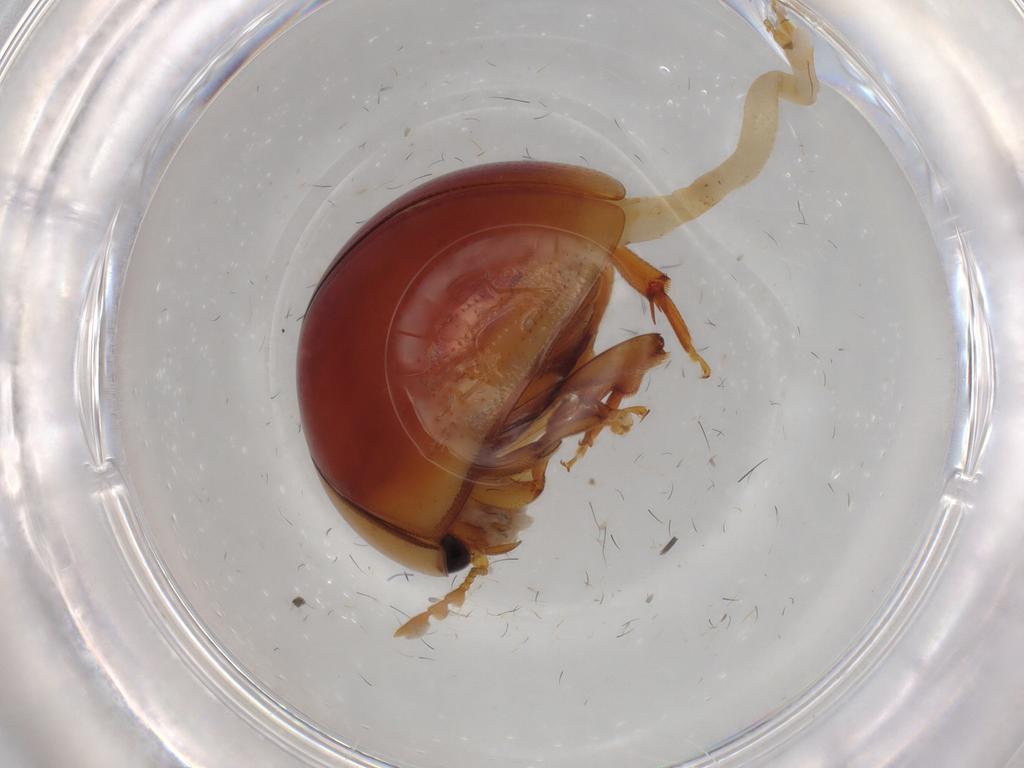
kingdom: Animalia
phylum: Arthropoda
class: Insecta
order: Coleoptera
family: Phalacridae
